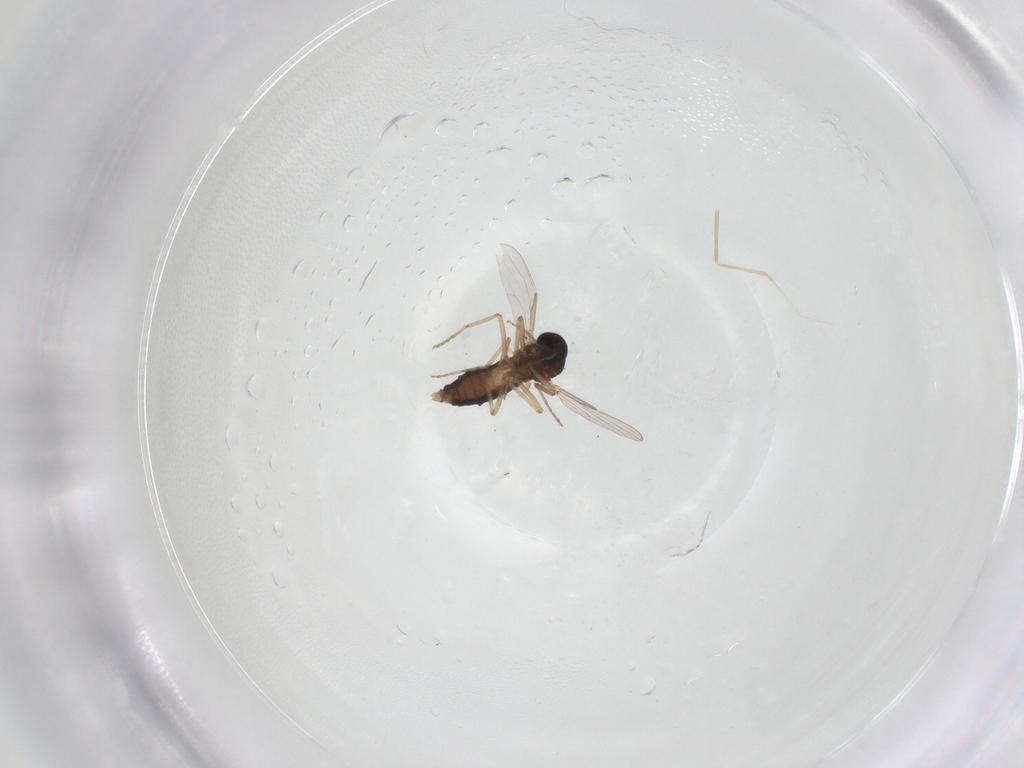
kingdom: Animalia
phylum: Arthropoda
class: Insecta
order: Diptera
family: Cecidomyiidae
